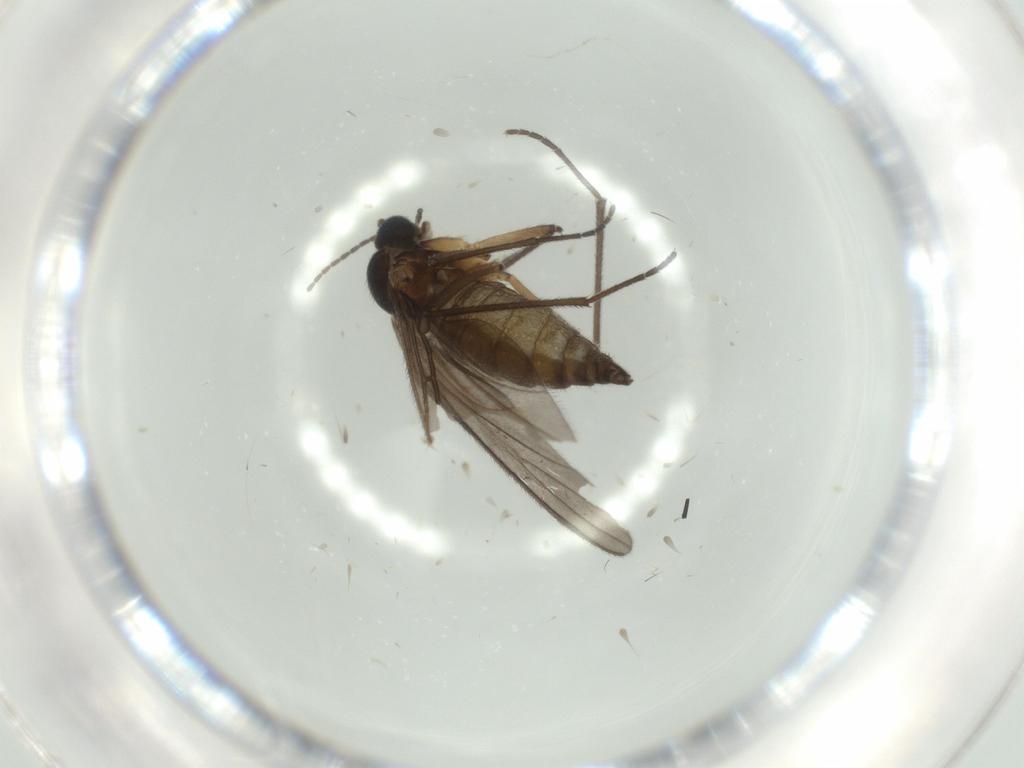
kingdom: Animalia
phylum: Arthropoda
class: Insecta
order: Diptera
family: Sciaridae
